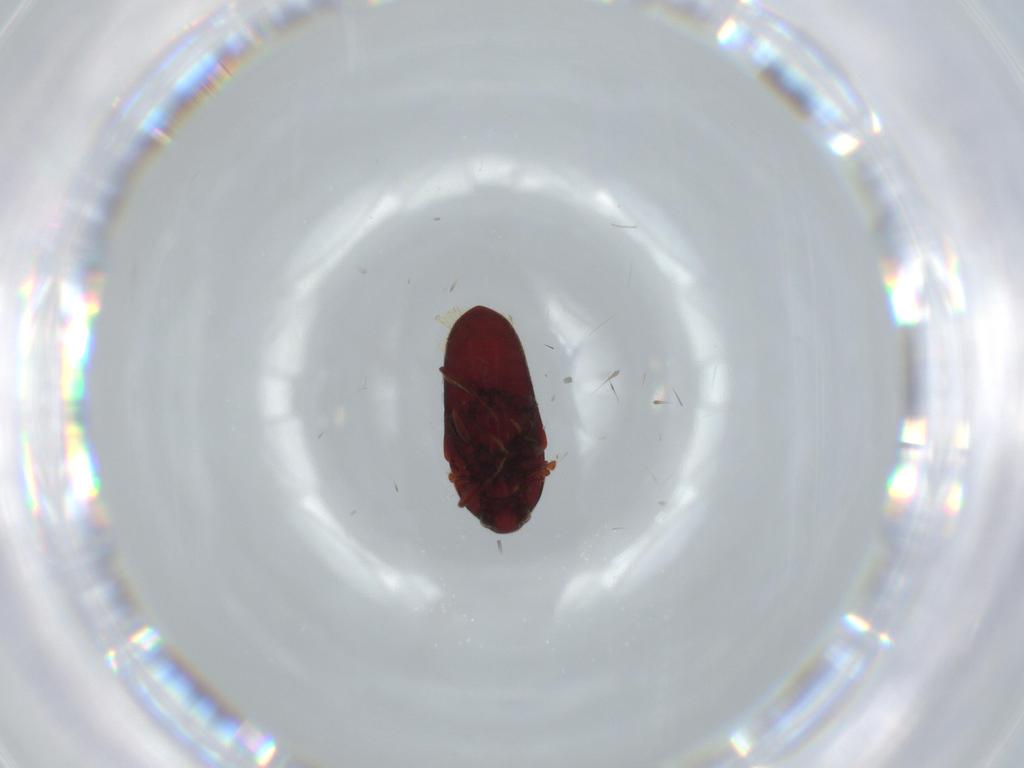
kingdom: Animalia
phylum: Arthropoda
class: Insecta
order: Coleoptera
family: Throscidae
